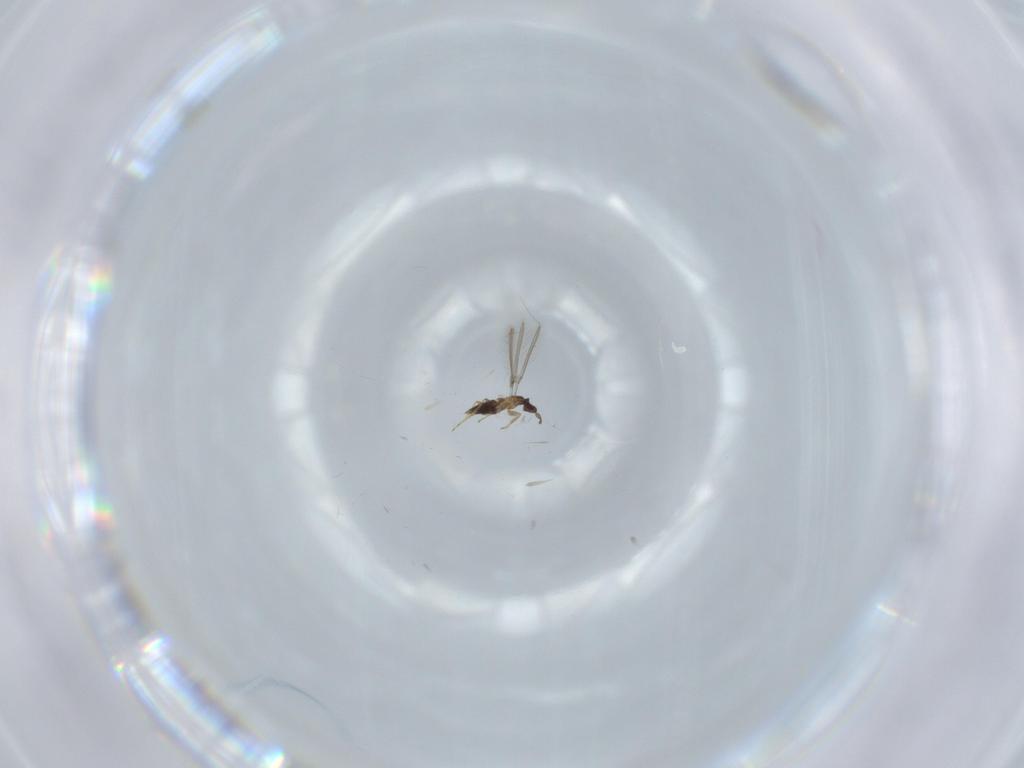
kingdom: Animalia
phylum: Arthropoda
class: Insecta
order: Hymenoptera
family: Mymaridae
